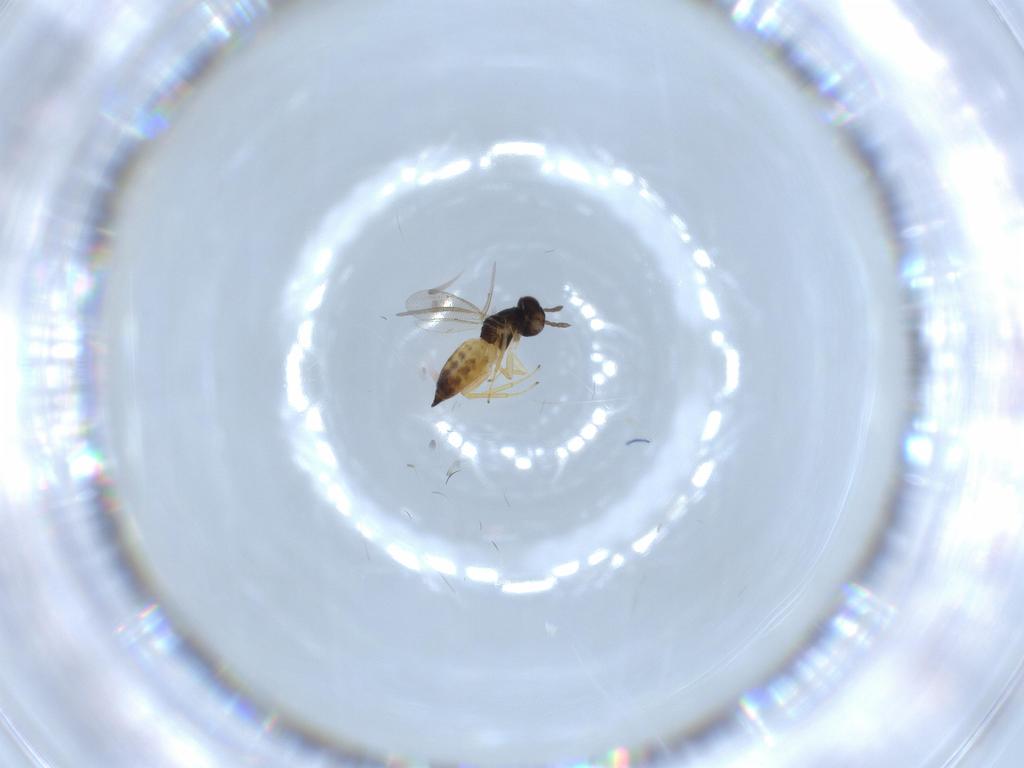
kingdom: Animalia
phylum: Arthropoda
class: Insecta
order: Hymenoptera
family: Eulophidae
